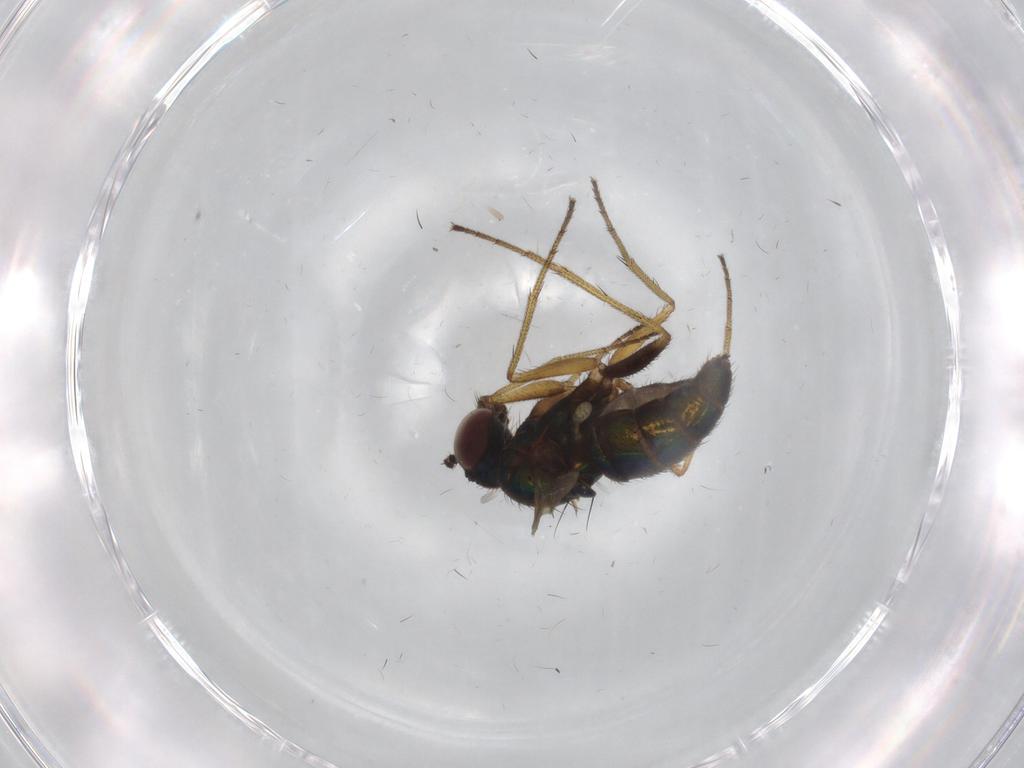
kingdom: Animalia
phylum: Arthropoda
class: Insecta
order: Diptera
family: Dolichopodidae
